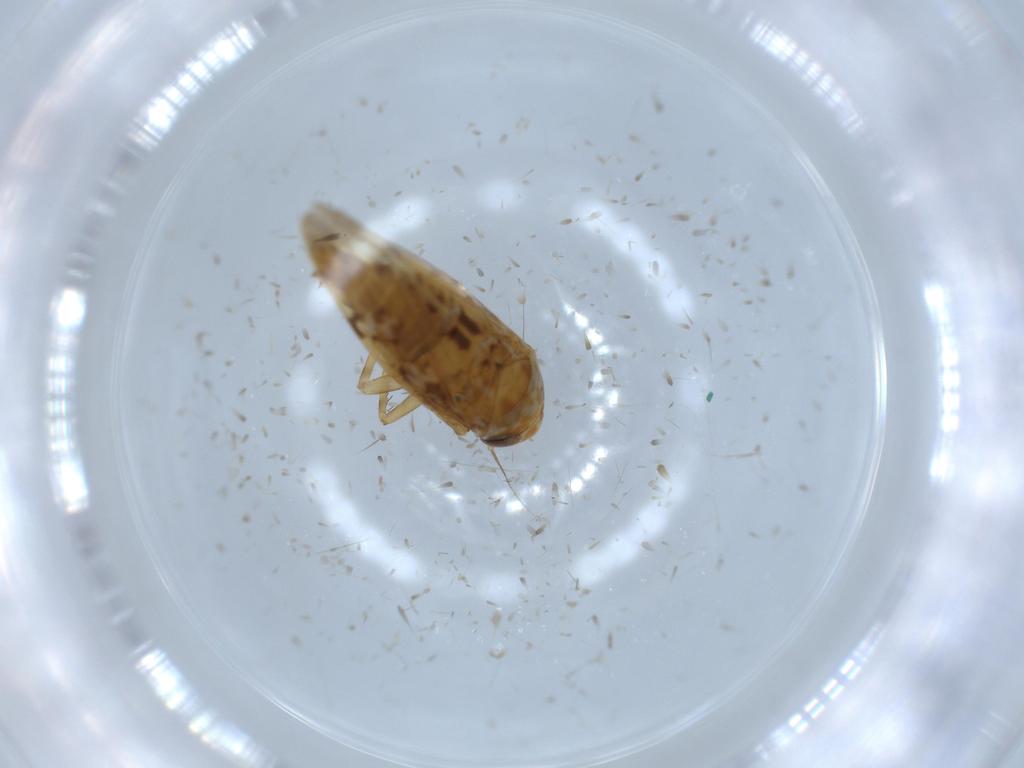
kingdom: Animalia
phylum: Arthropoda
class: Insecta
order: Hemiptera
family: Cicadellidae
